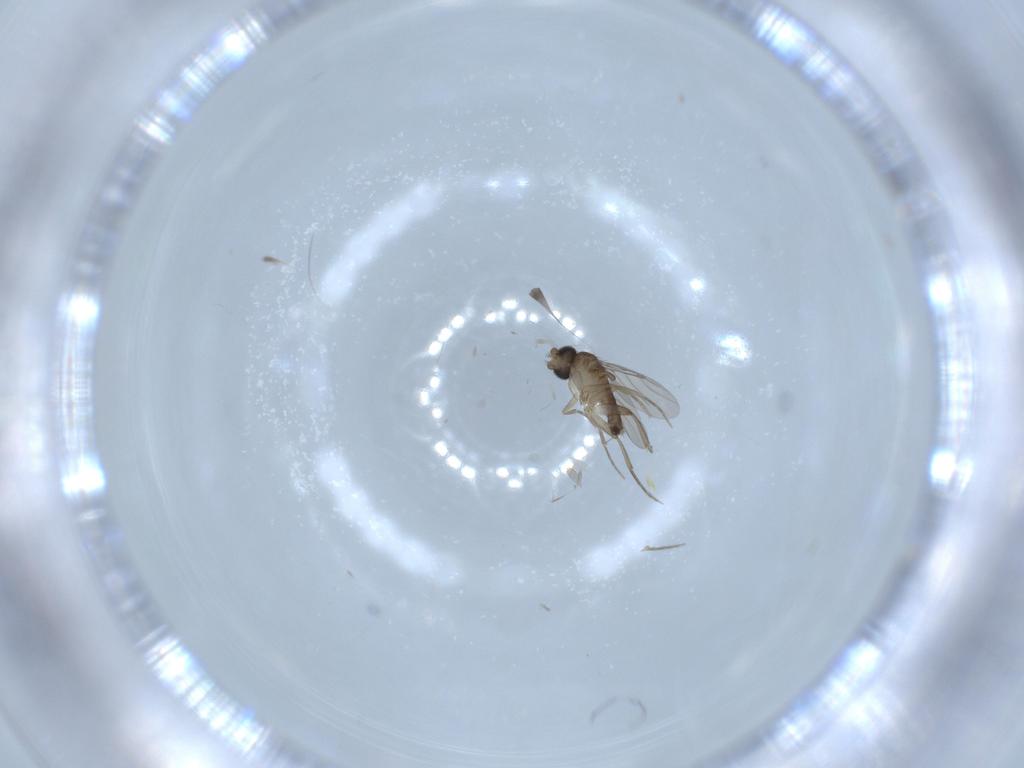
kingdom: Animalia
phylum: Arthropoda
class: Insecta
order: Diptera
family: Phoridae
